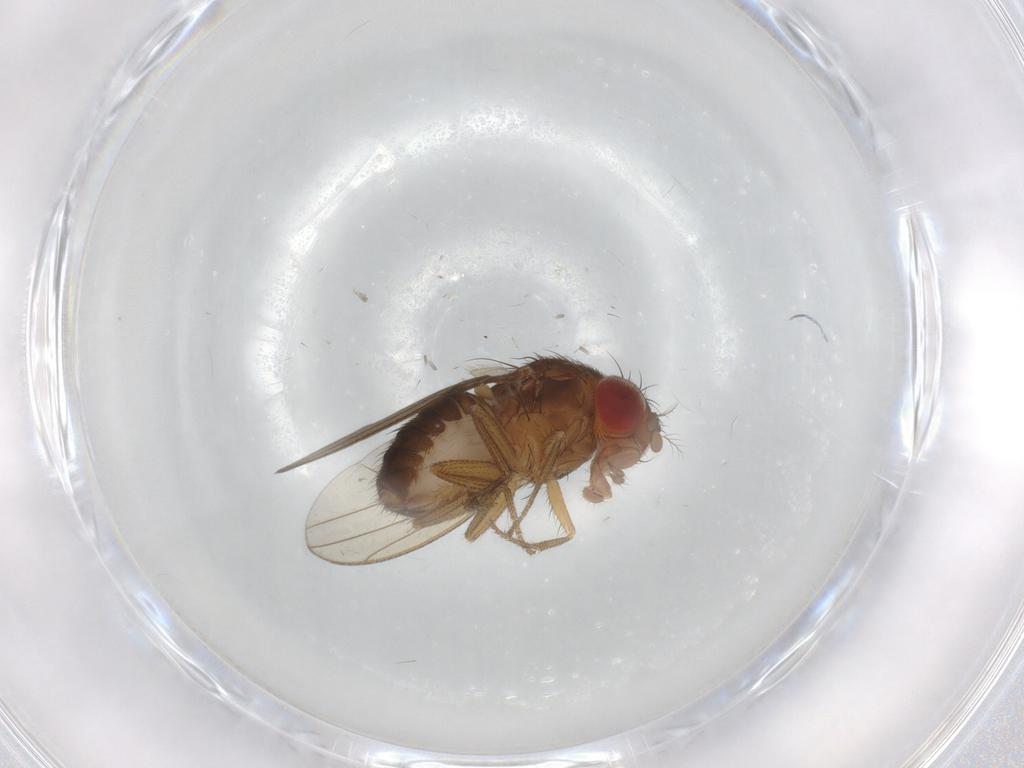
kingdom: Animalia
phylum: Arthropoda
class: Insecta
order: Diptera
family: Drosophilidae
